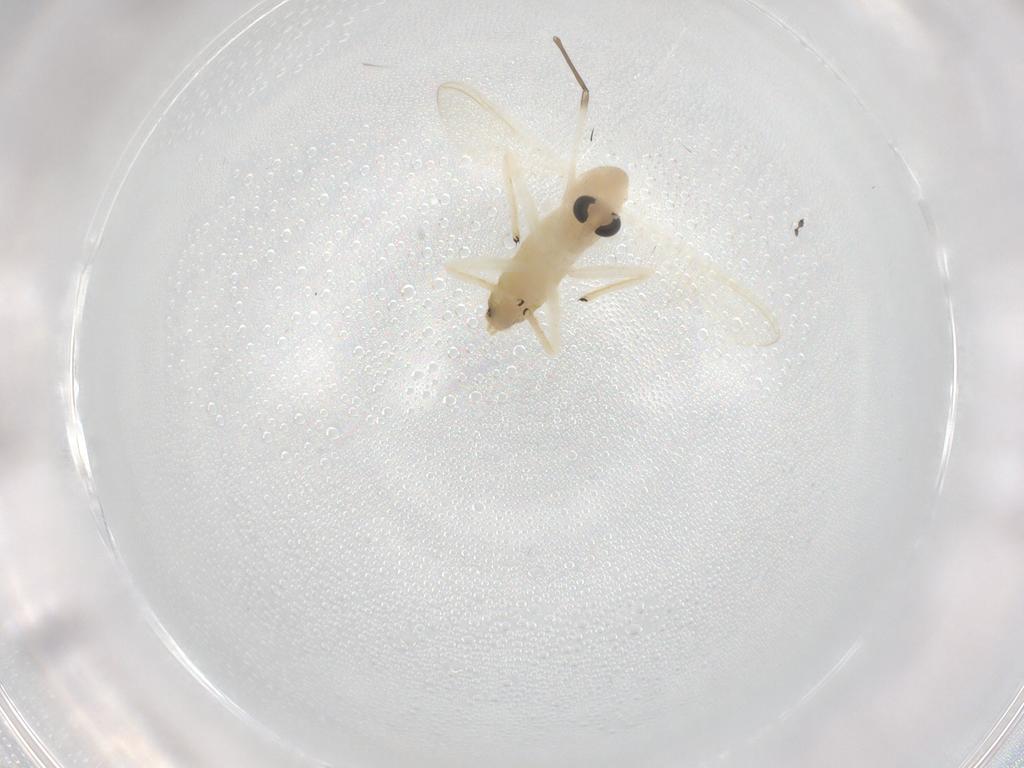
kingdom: Animalia
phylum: Arthropoda
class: Insecta
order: Diptera
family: Chironomidae
